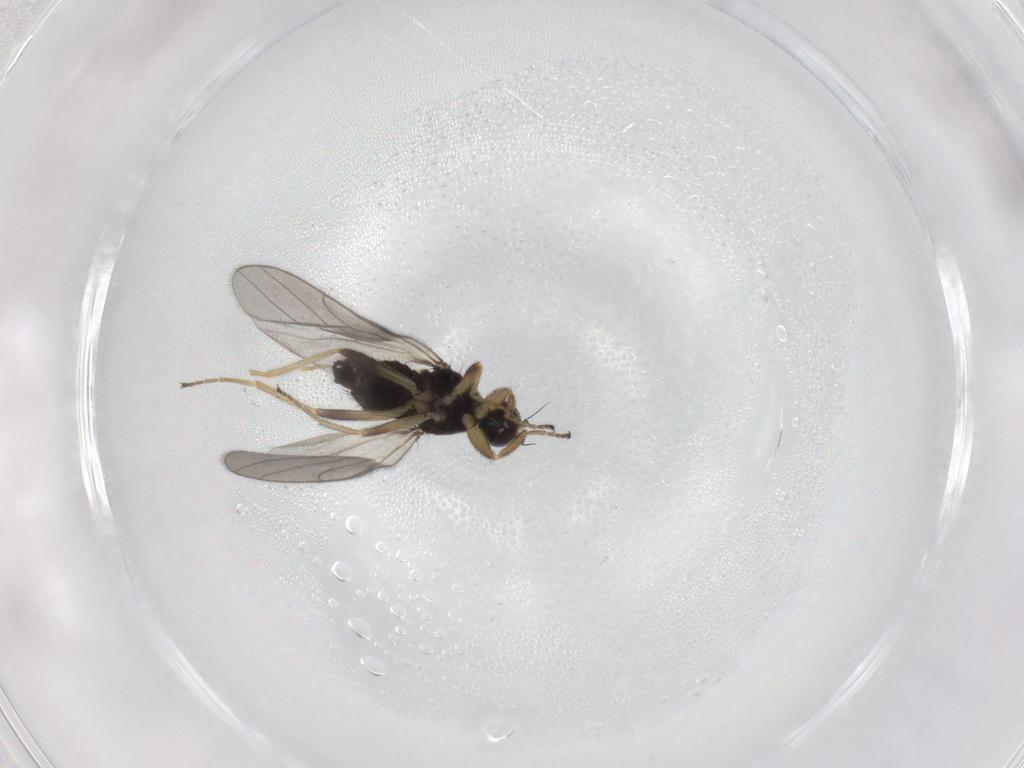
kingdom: Animalia
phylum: Arthropoda
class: Insecta
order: Diptera
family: Hybotidae
